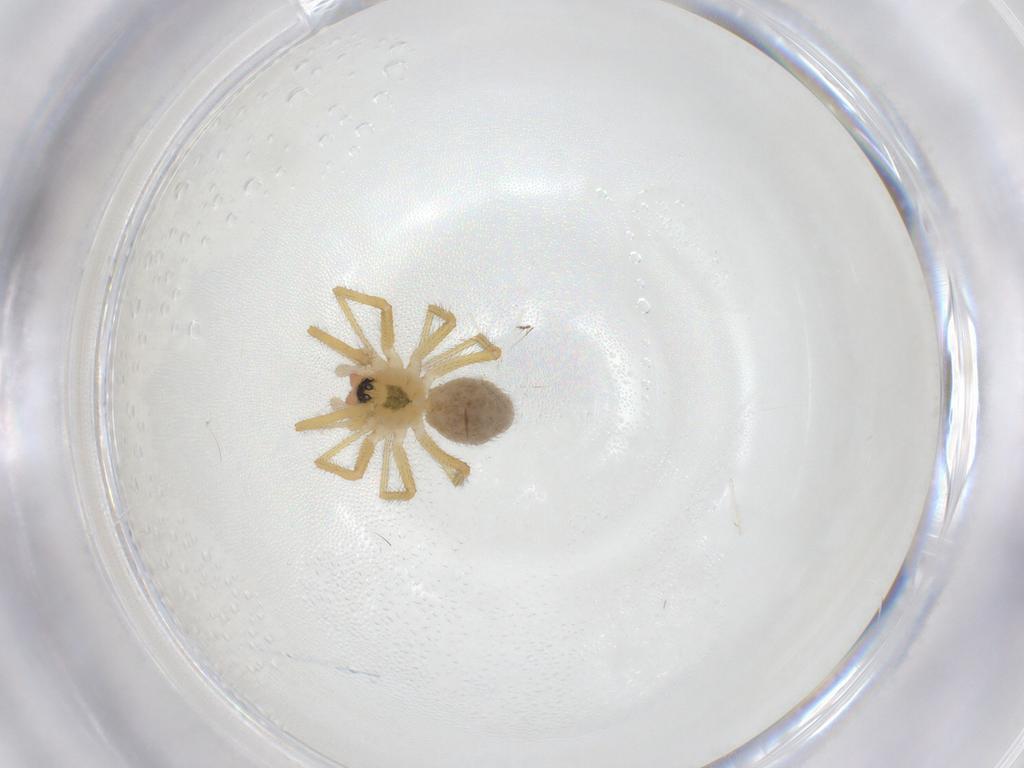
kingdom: Animalia
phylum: Arthropoda
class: Arachnida
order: Araneae
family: Linyphiidae
